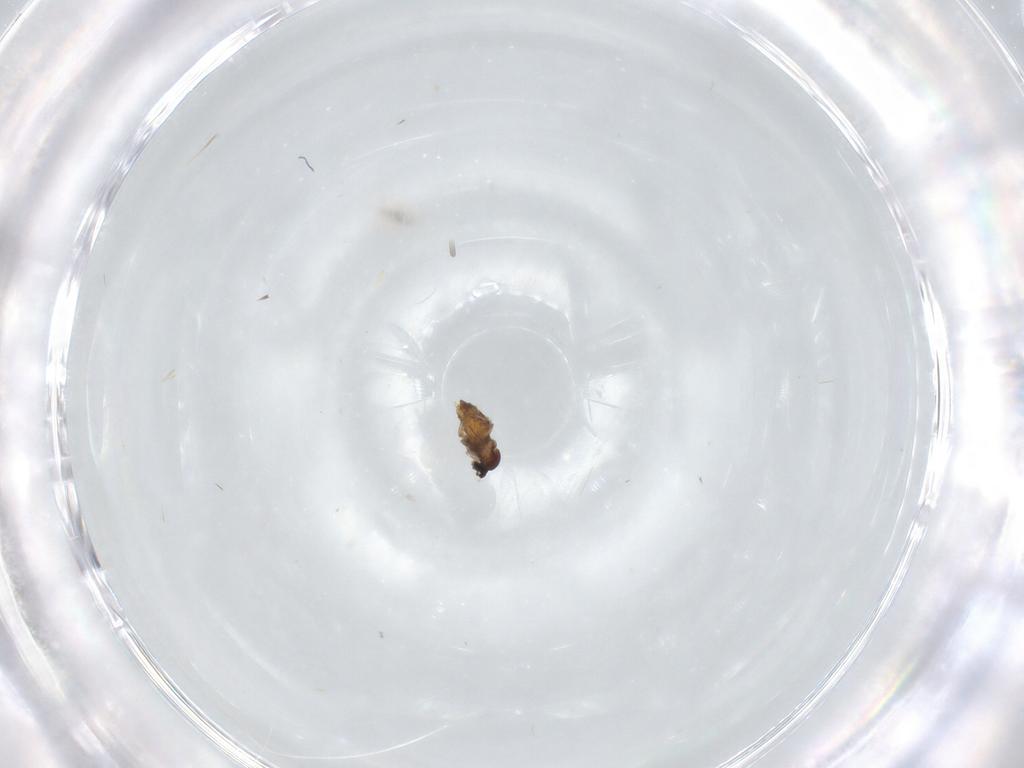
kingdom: Animalia
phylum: Arthropoda
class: Insecta
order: Diptera
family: Cecidomyiidae
